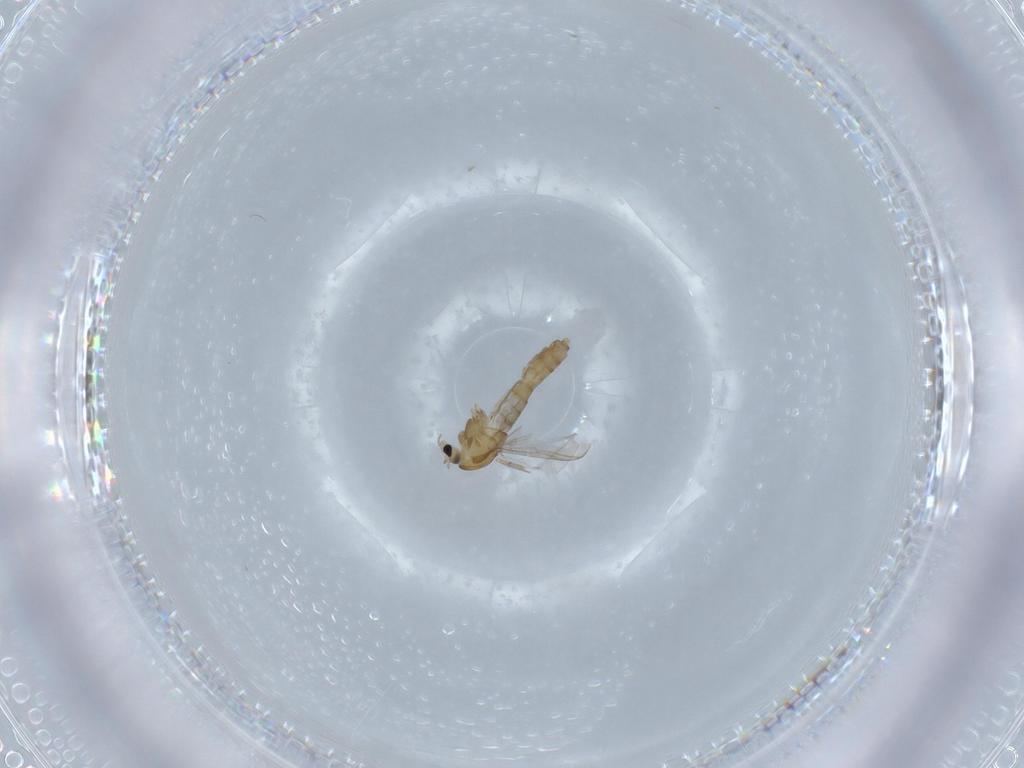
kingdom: Animalia
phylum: Arthropoda
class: Insecta
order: Diptera
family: Chironomidae
